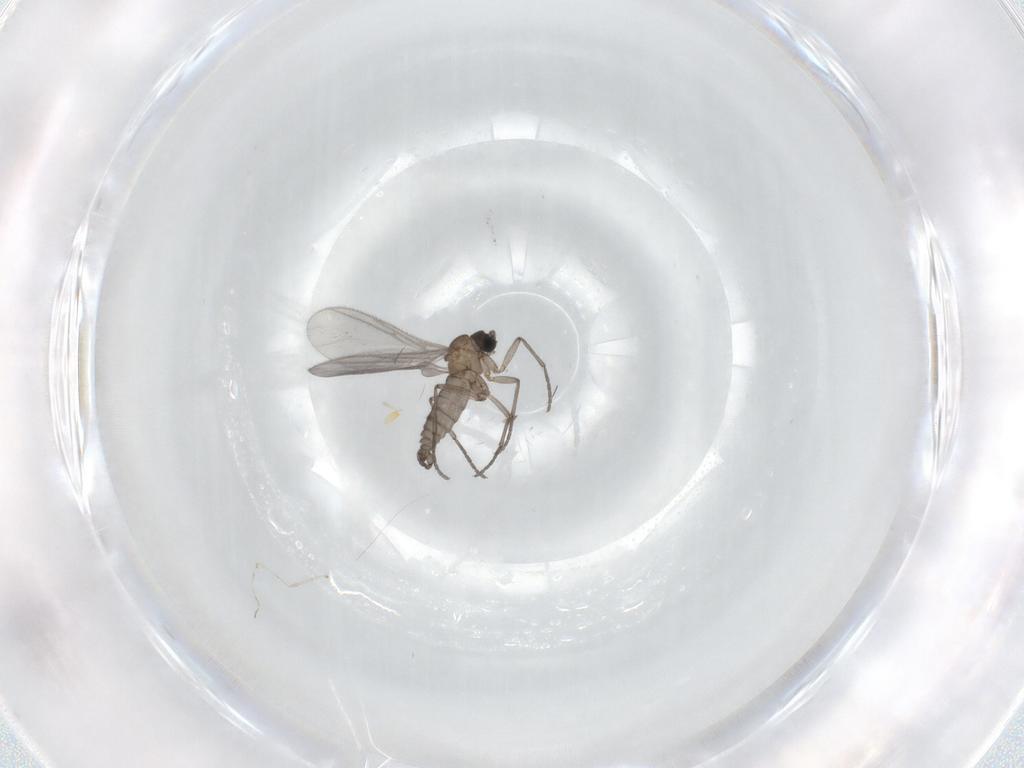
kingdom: Animalia
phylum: Arthropoda
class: Insecta
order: Diptera
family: Sciaridae
